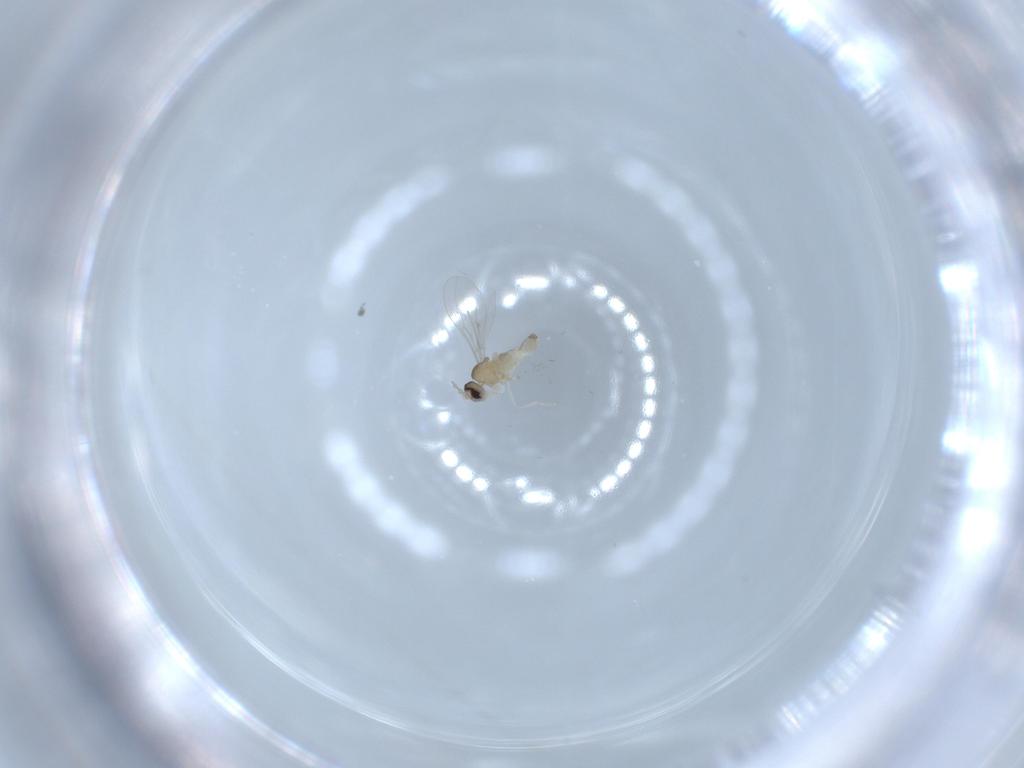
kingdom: Animalia
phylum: Arthropoda
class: Insecta
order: Diptera
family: Cecidomyiidae
